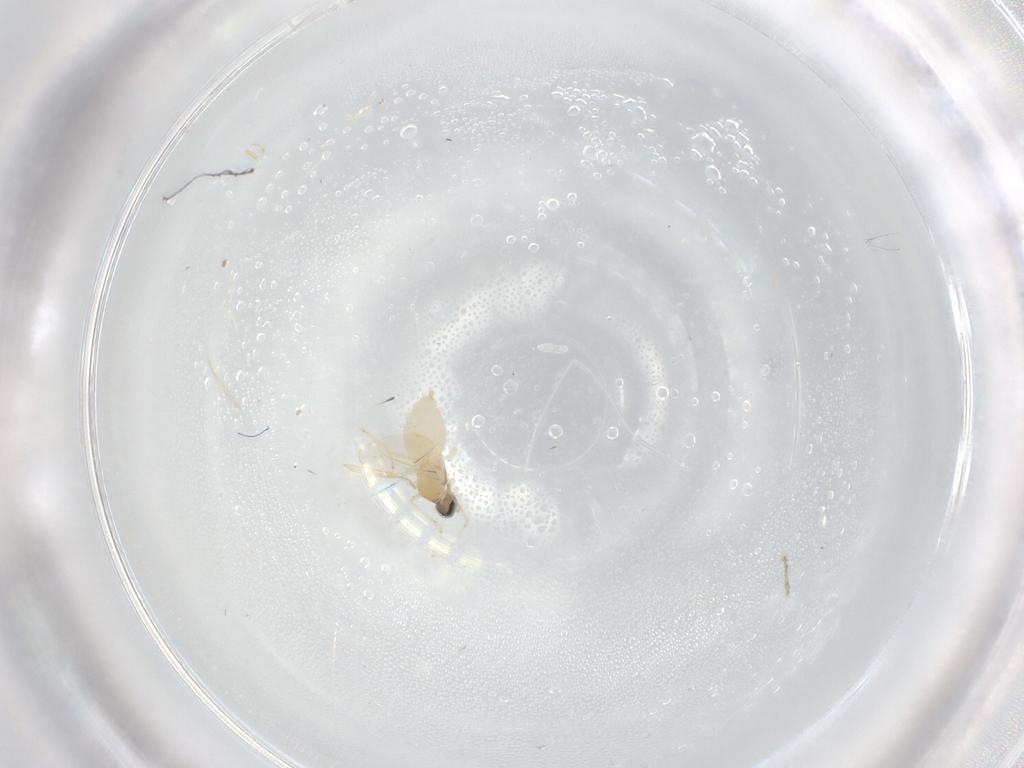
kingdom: Animalia
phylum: Arthropoda
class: Insecta
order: Diptera
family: Cecidomyiidae
